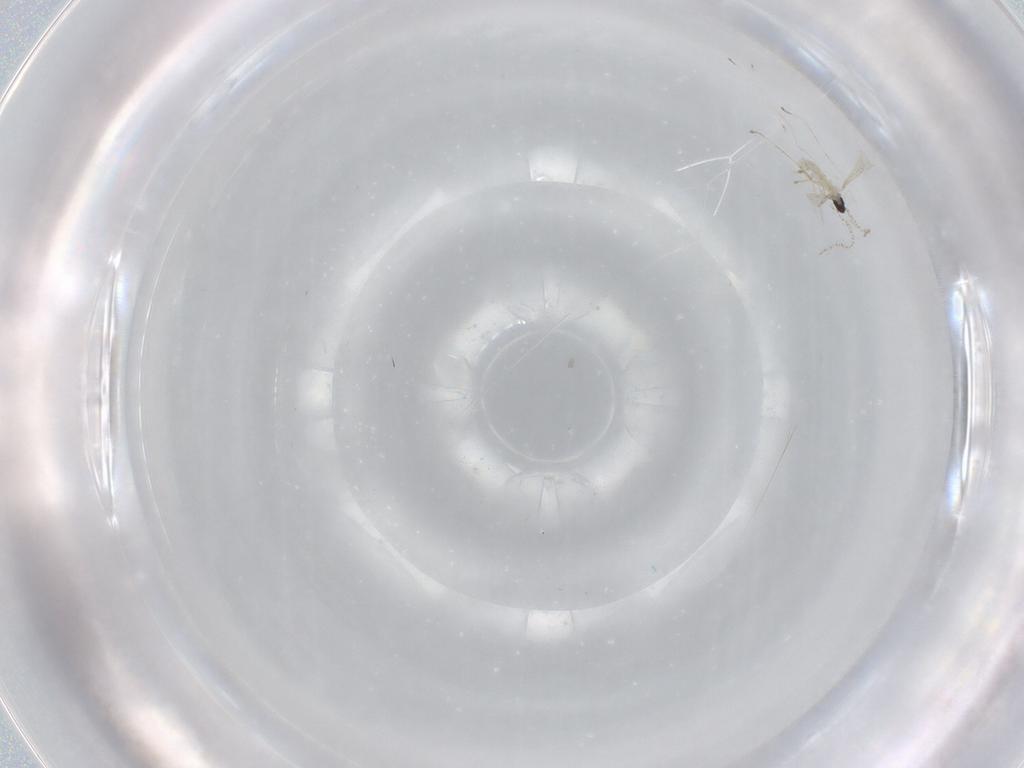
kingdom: Animalia
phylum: Arthropoda
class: Insecta
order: Diptera
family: Cecidomyiidae
